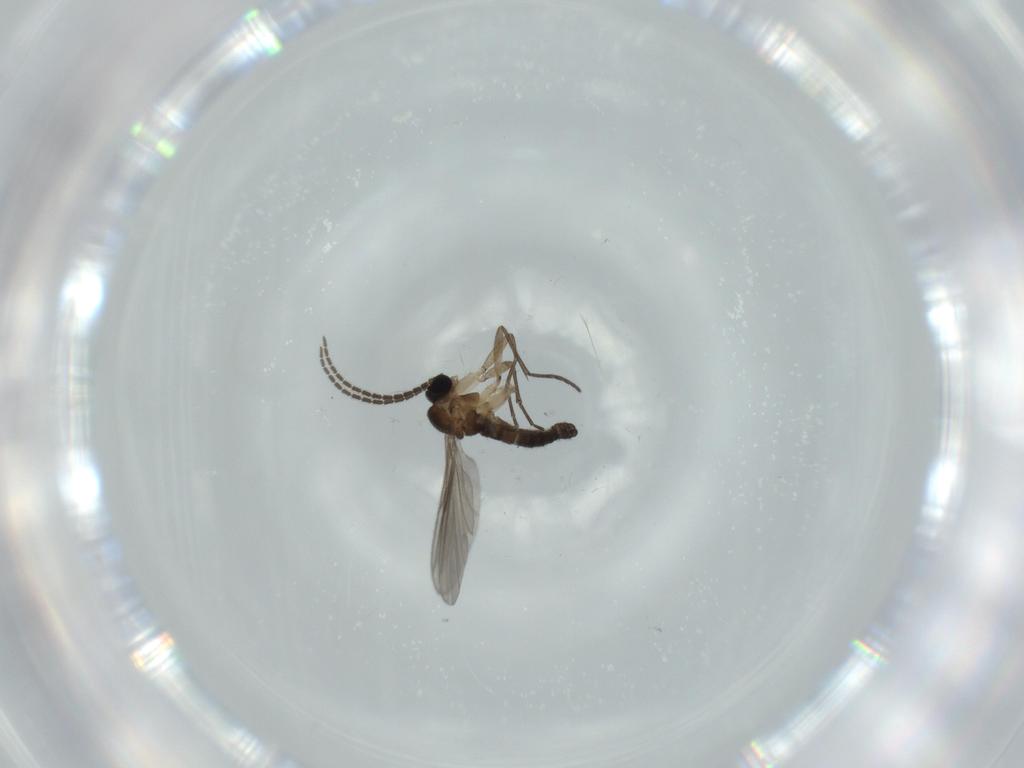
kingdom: Animalia
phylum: Arthropoda
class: Insecta
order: Diptera
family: Sciaridae
